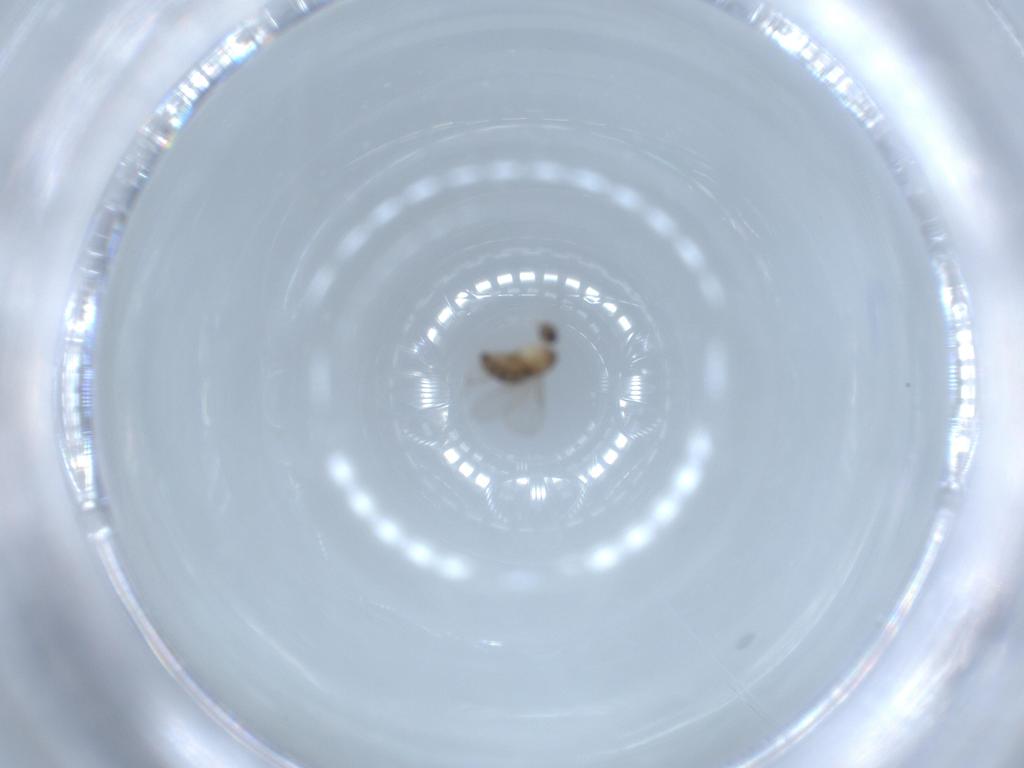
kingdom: Animalia
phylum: Arthropoda
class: Insecta
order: Diptera
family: Phoridae
